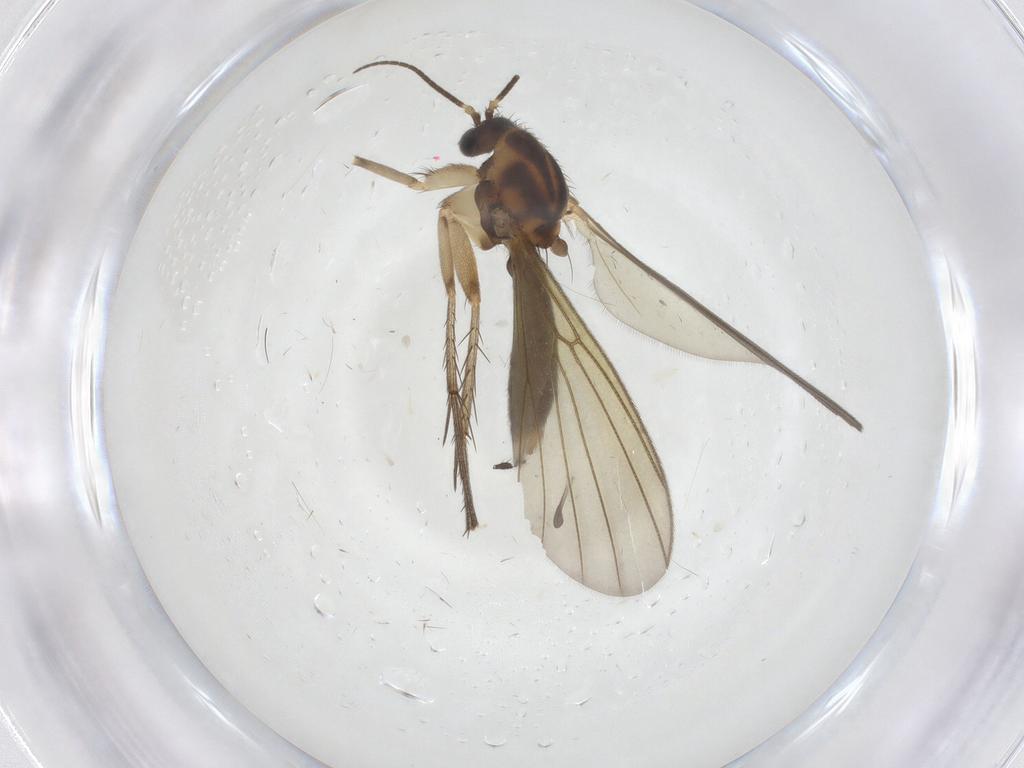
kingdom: Animalia
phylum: Arthropoda
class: Insecta
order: Diptera
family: Mycetophilidae
